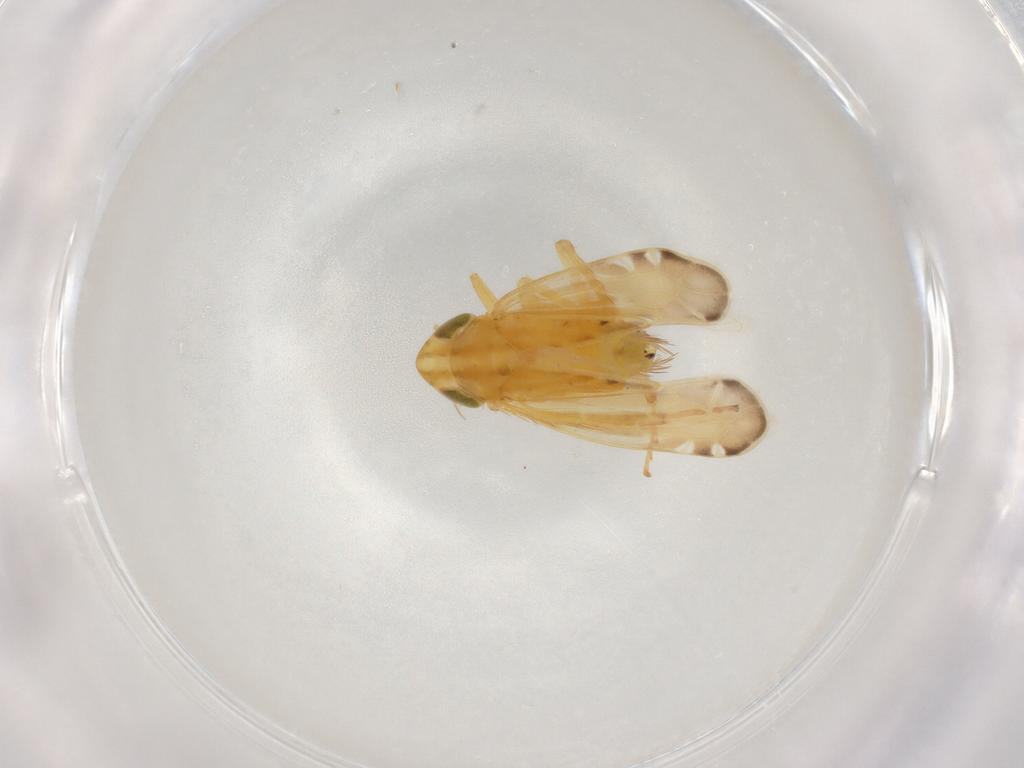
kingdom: Animalia
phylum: Arthropoda
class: Insecta
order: Hemiptera
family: Cicadellidae
